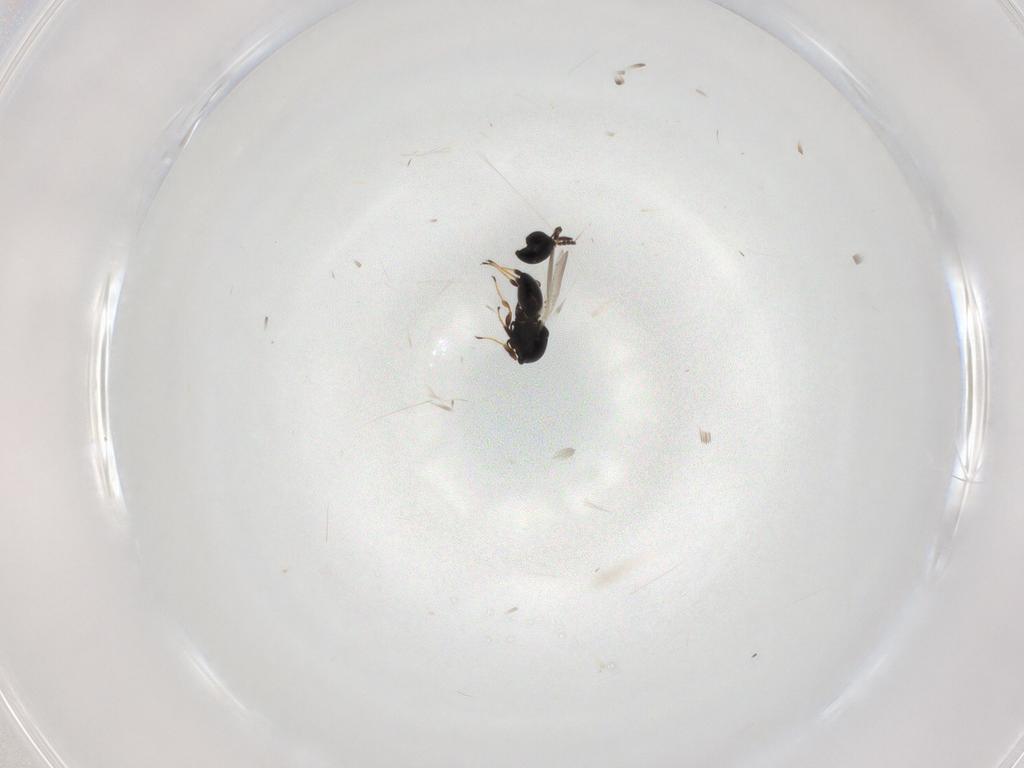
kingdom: Animalia
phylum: Arthropoda
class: Insecta
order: Hymenoptera
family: Platygastridae
